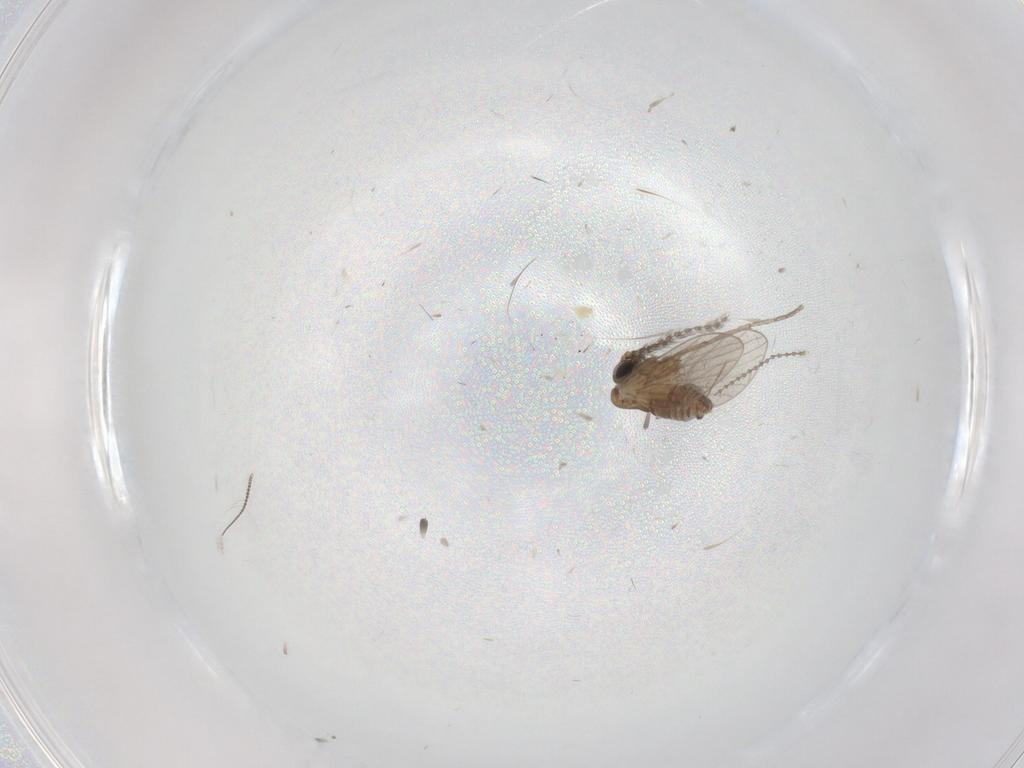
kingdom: Animalia
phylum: Arthropoda
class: Insecta
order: Diptera
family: Psychodidae
